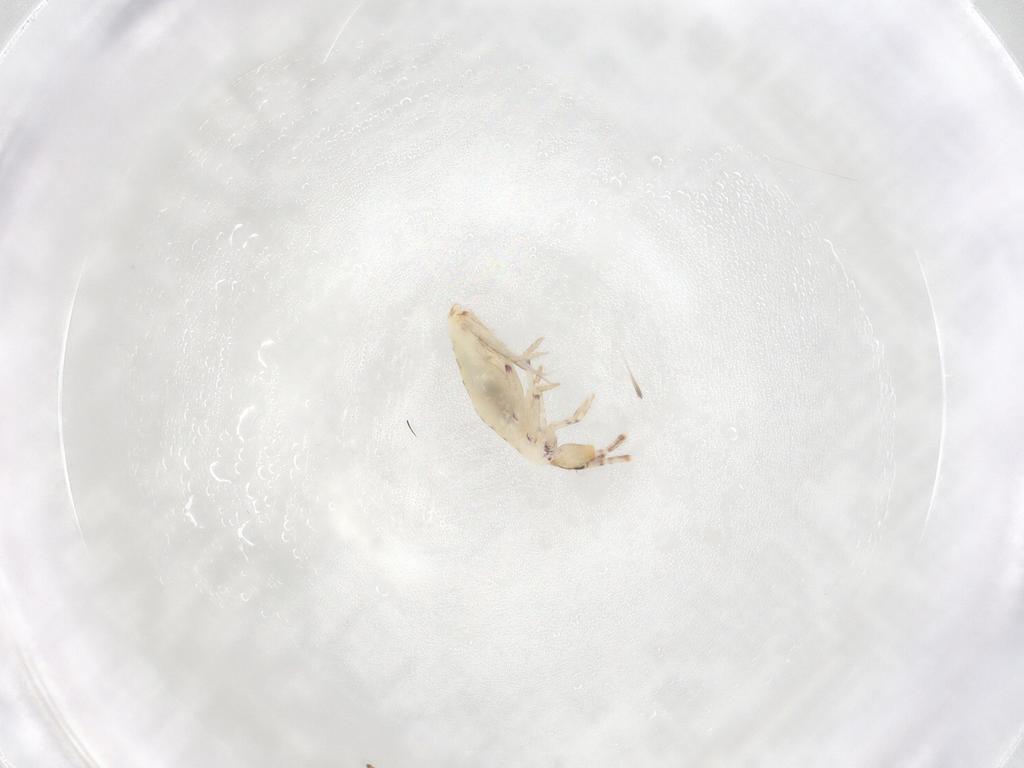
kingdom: Animalia
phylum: Arthropoda
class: Collembola
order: Entomobryomorpha
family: Entomobryidae
